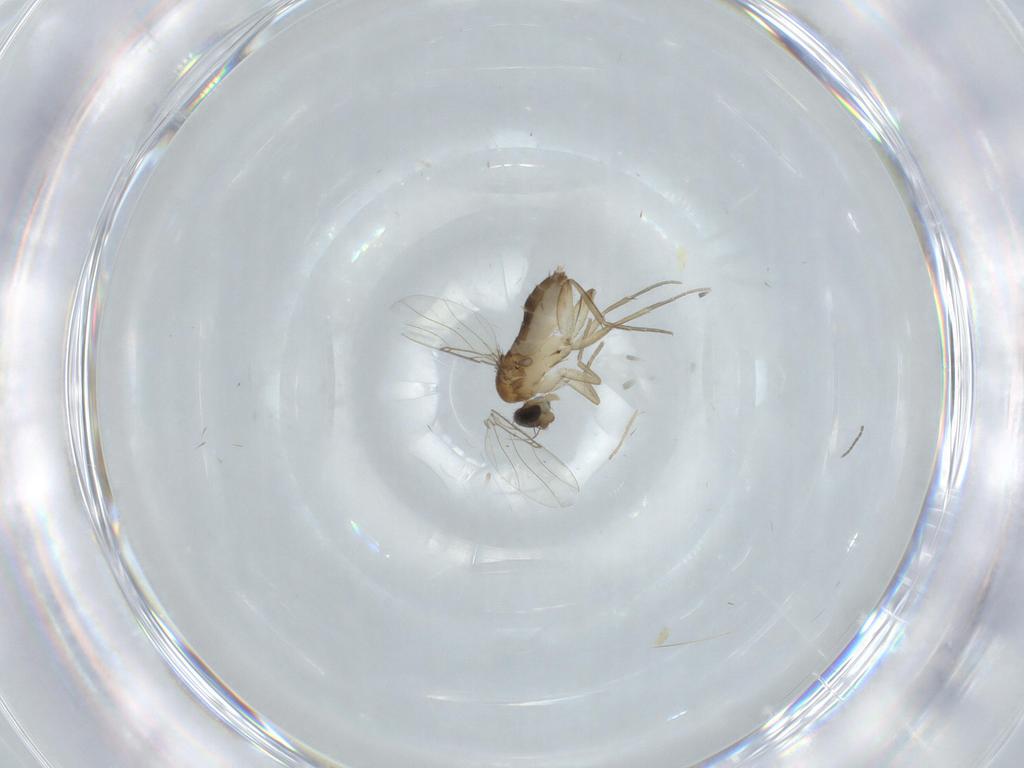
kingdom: Animalia
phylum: Arthropoda
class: Insecta
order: Diptera
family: Phoridae
